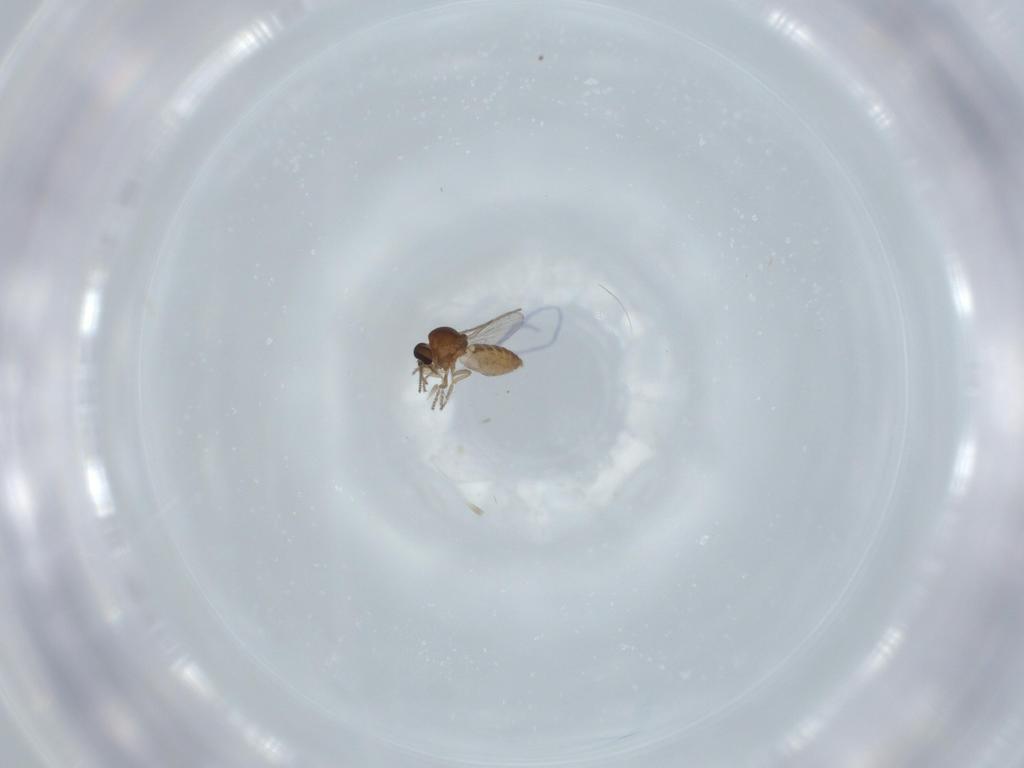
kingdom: Animalia
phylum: Arthropoda
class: Insecta
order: Diptera
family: Ceratopogonidae
